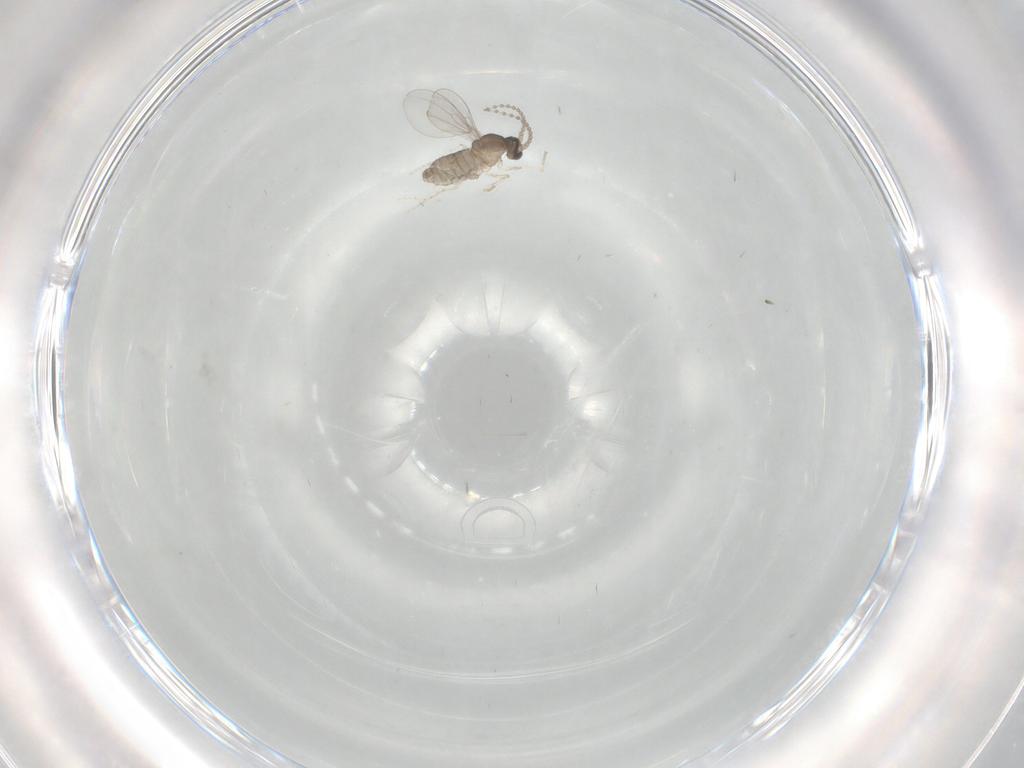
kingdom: Animalia
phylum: Arthropoda
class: Insecta
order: Diptera
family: Cecidomyiidae
